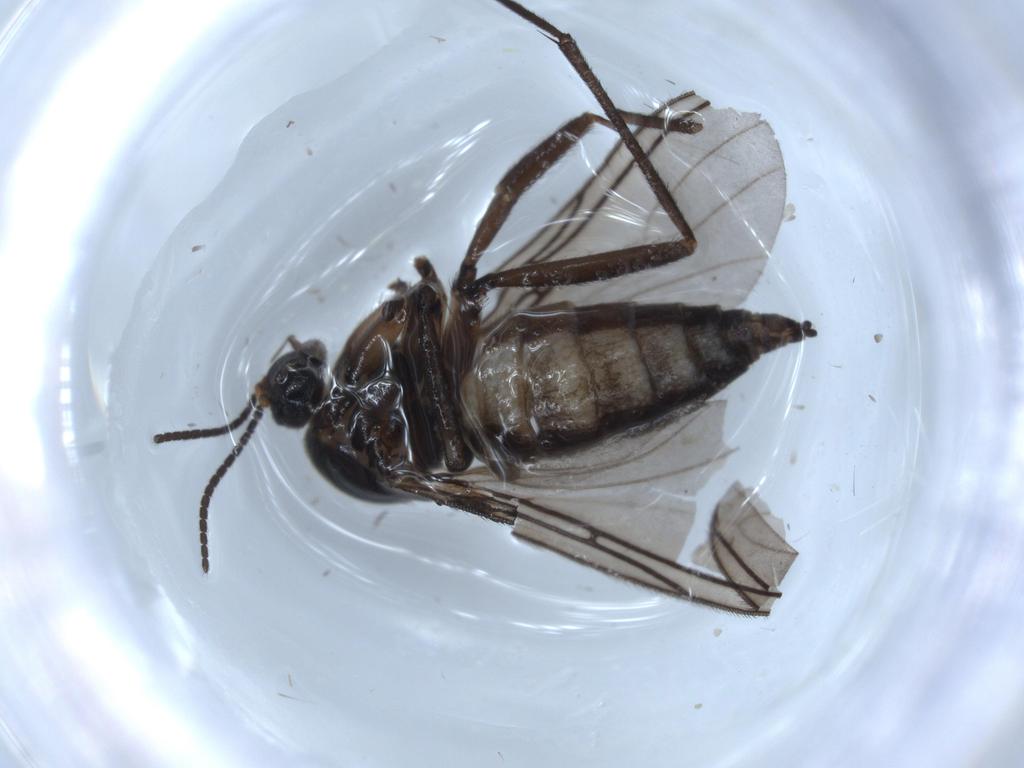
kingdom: Animalia
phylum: Arthropoda
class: Insecta
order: Diptera
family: Sciaridae
